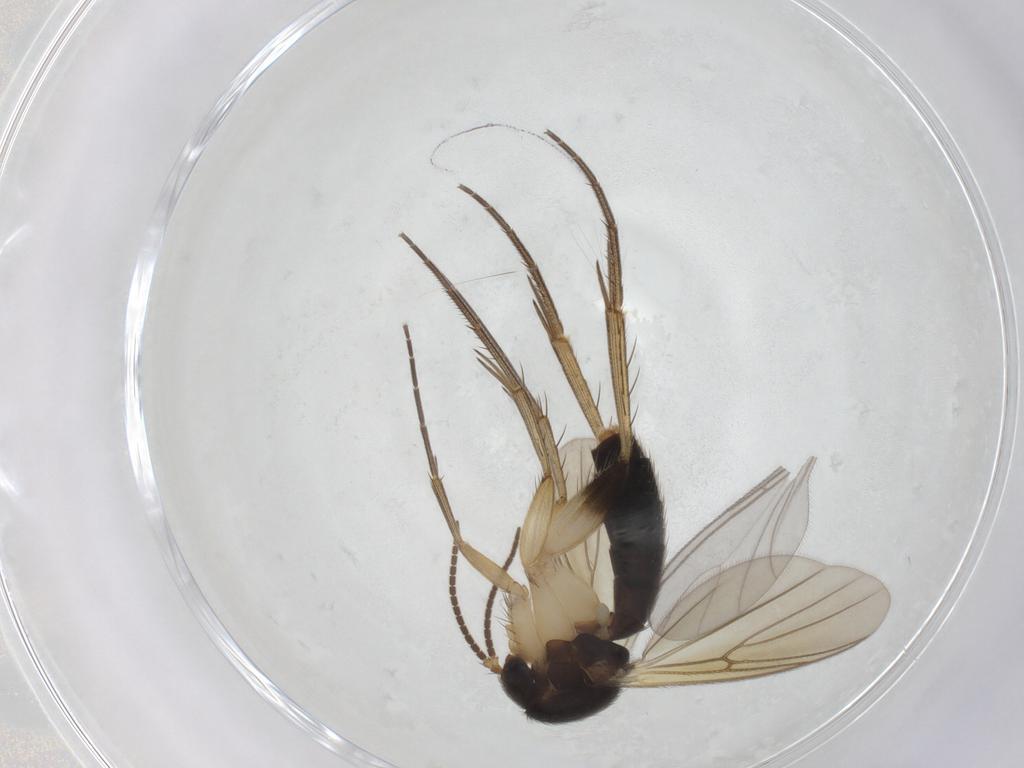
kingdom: Animalia
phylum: Arthropoda
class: Insecta
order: Diptera
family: Mycetophilidae
